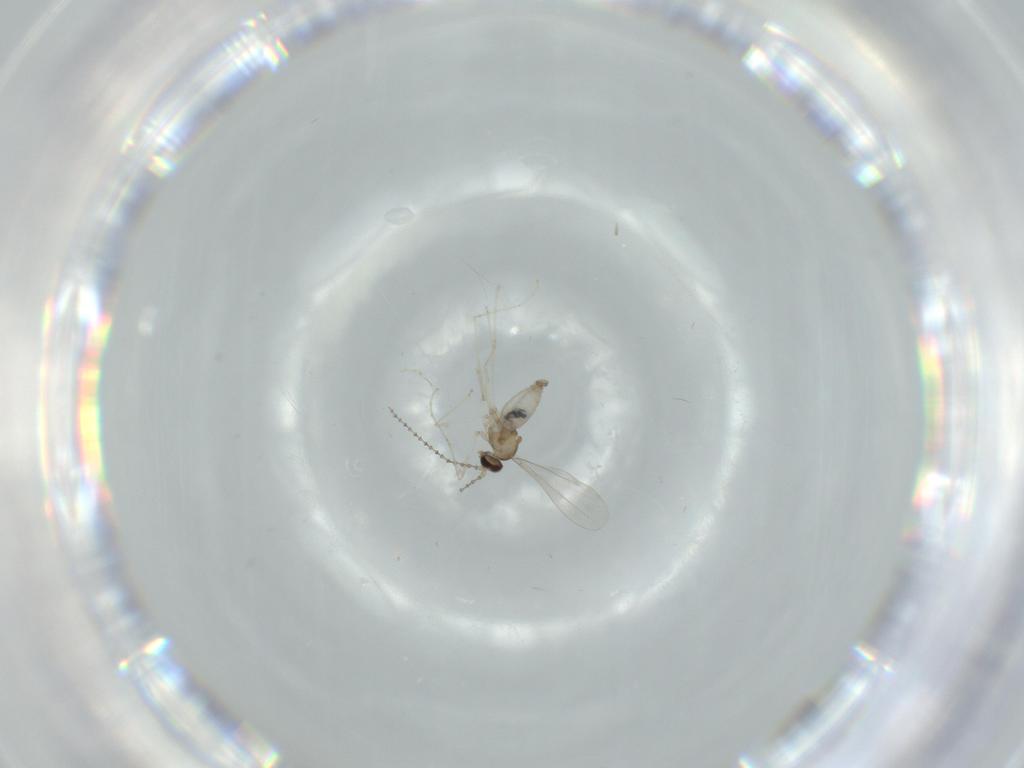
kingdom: Animalia
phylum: Arthropoda
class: Insecta
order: Diptera
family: Cecidomyiidae
